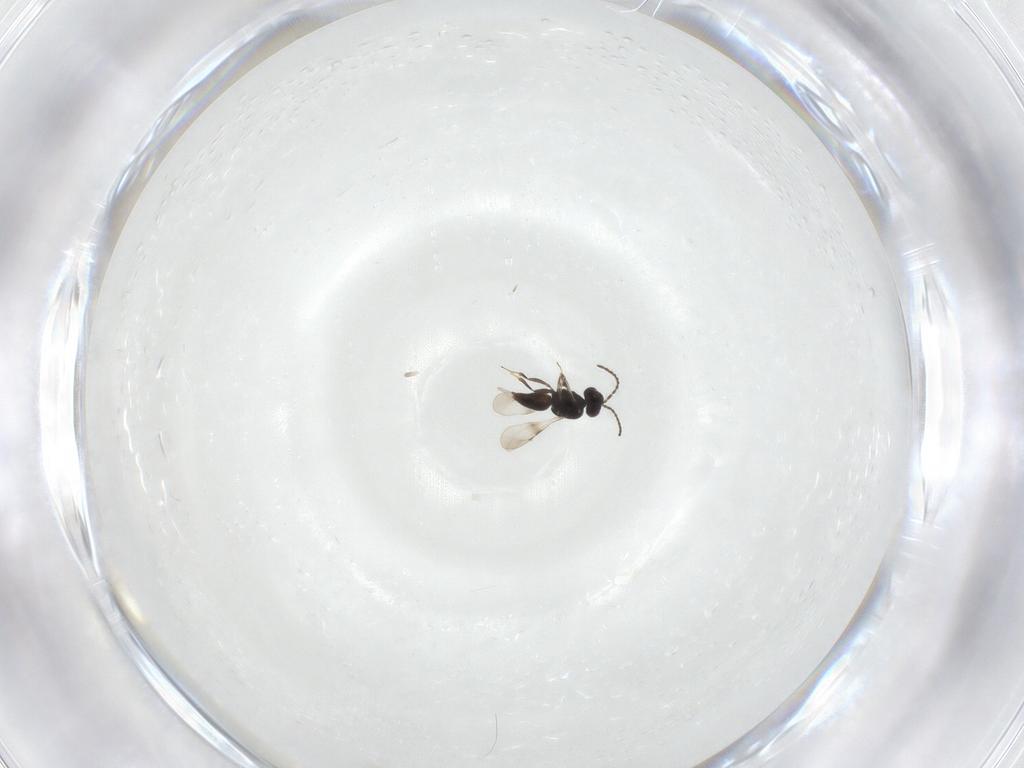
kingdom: Animalia
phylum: Arthropoda
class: Insecta
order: Hymenoptera
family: Ceraphronidae
